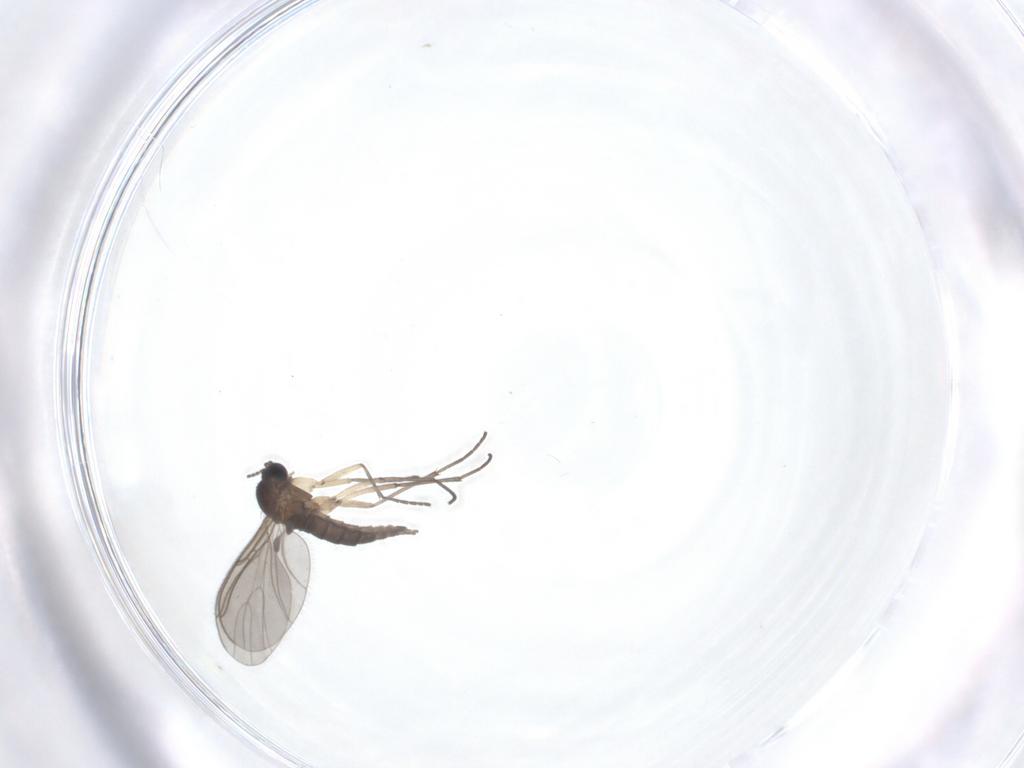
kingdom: Animalia
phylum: Arthropoda
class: Insecta
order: Diptera
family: Sciaridae
